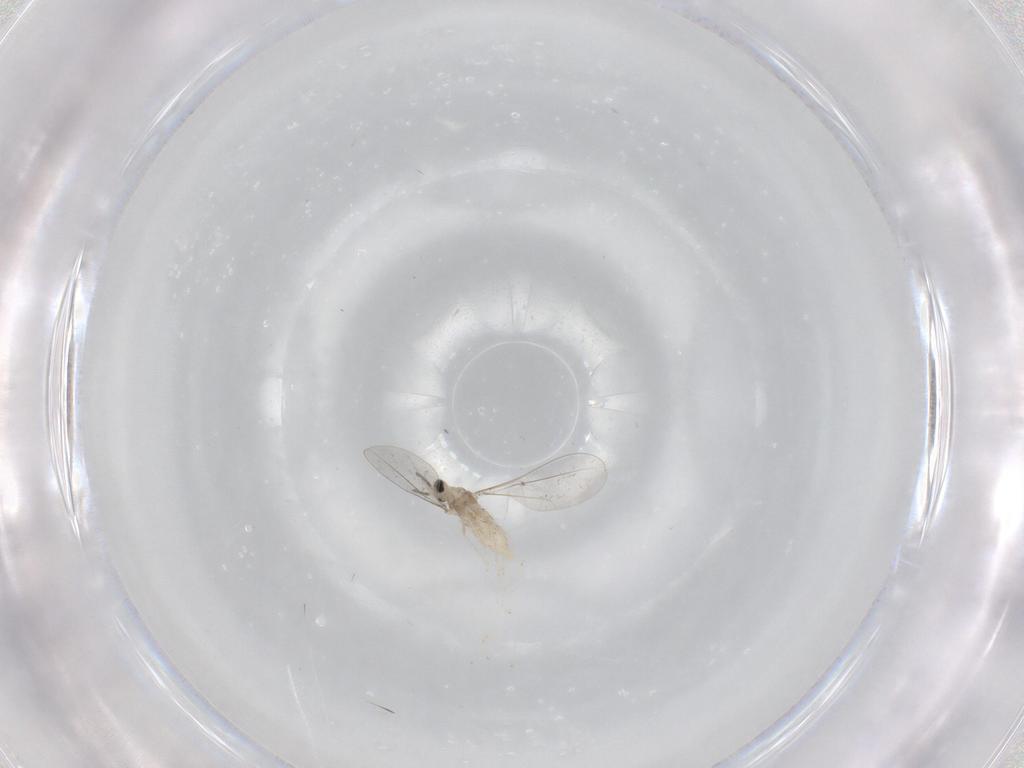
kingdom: Animalia
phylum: Arthropoda
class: Insecta
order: Diptera
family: Cecidomyiidae
